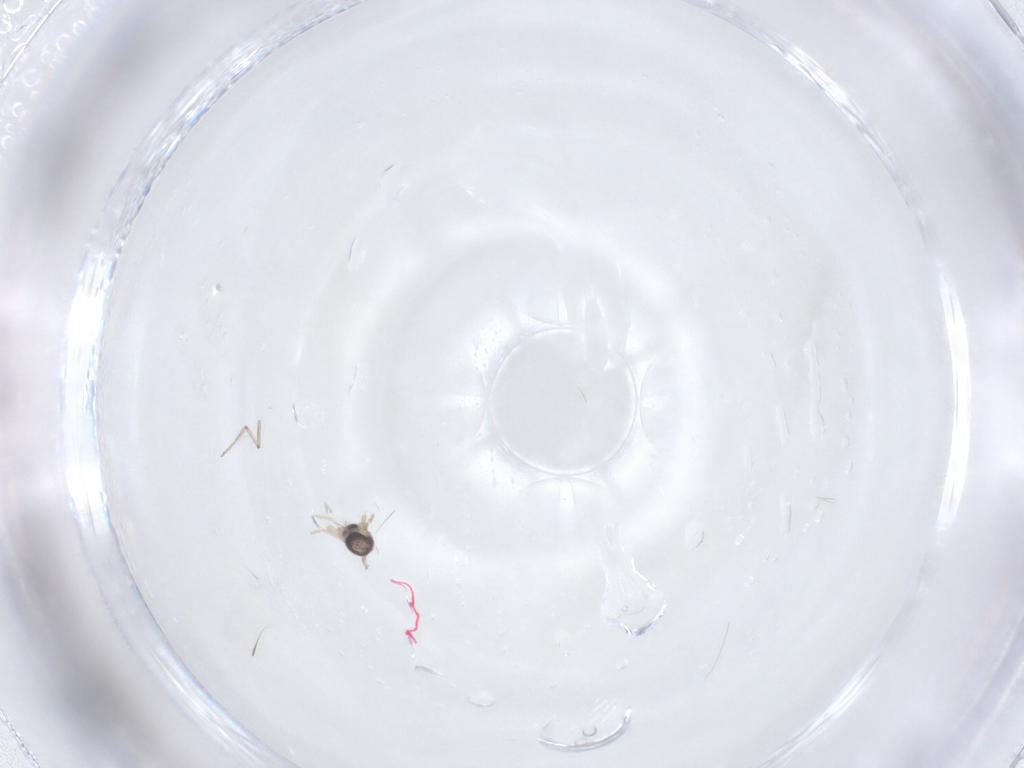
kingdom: Animalia
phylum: Arthropoda
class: Insecta
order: Diptera
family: Chironomidae
